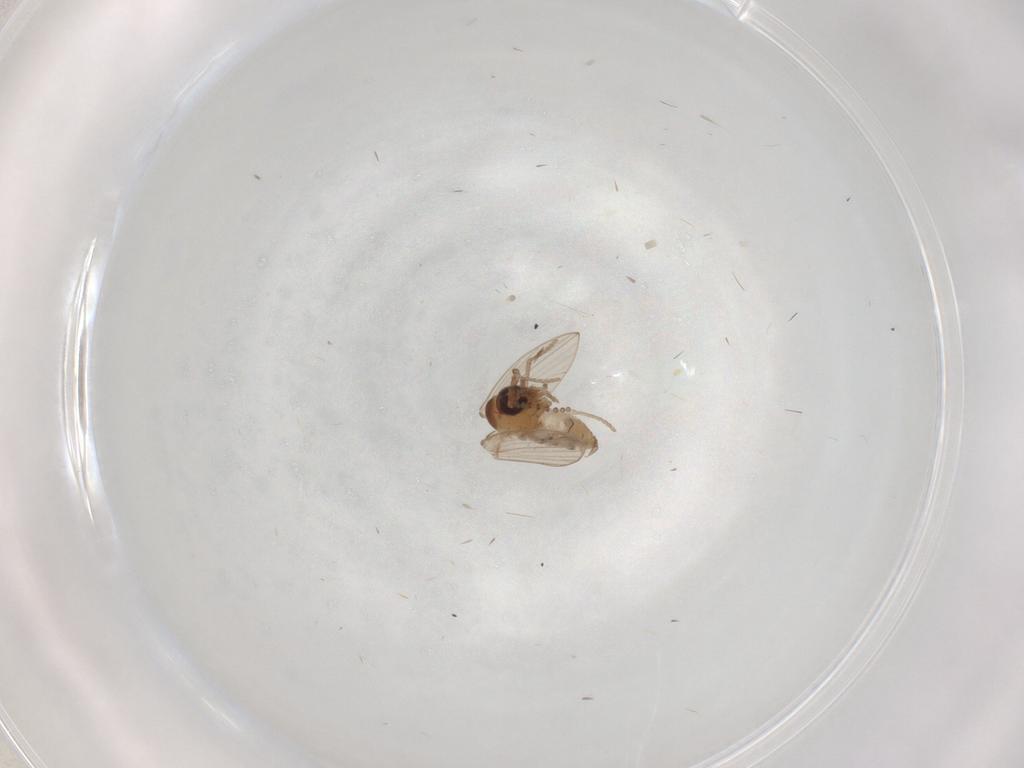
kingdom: Animalia
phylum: Arthropoda
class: Insecta
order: Diptera
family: Psychodidae
